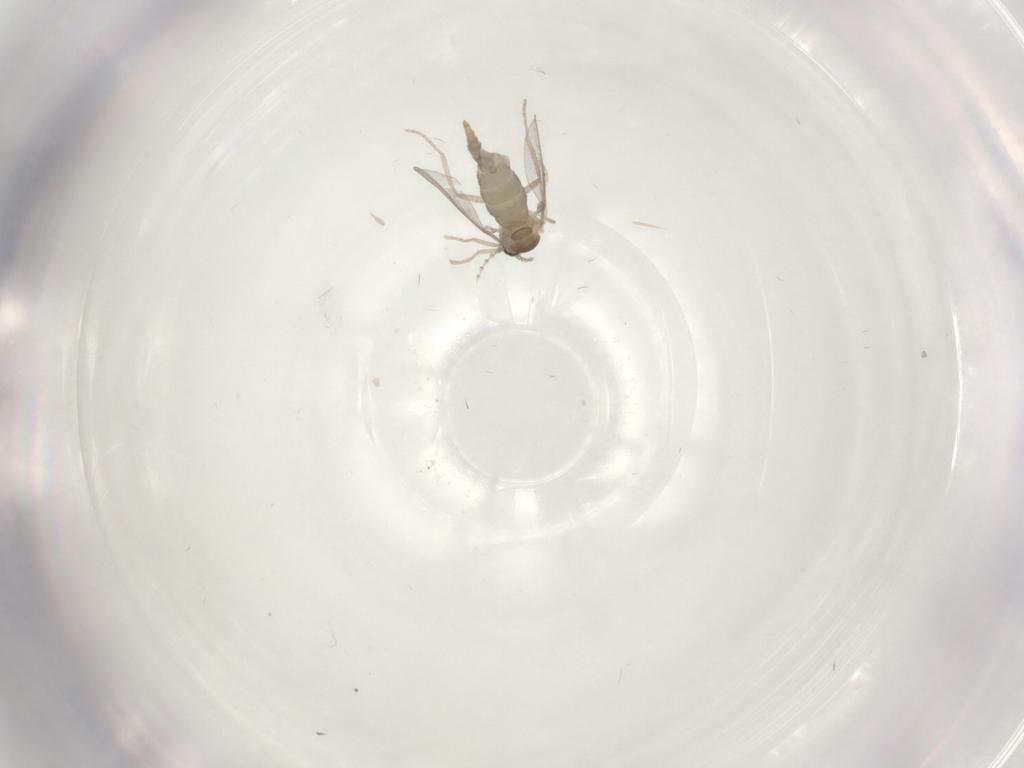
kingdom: Animalia
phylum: Arthropoda
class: Insecta
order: Diptera
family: Cecidomyiidae
